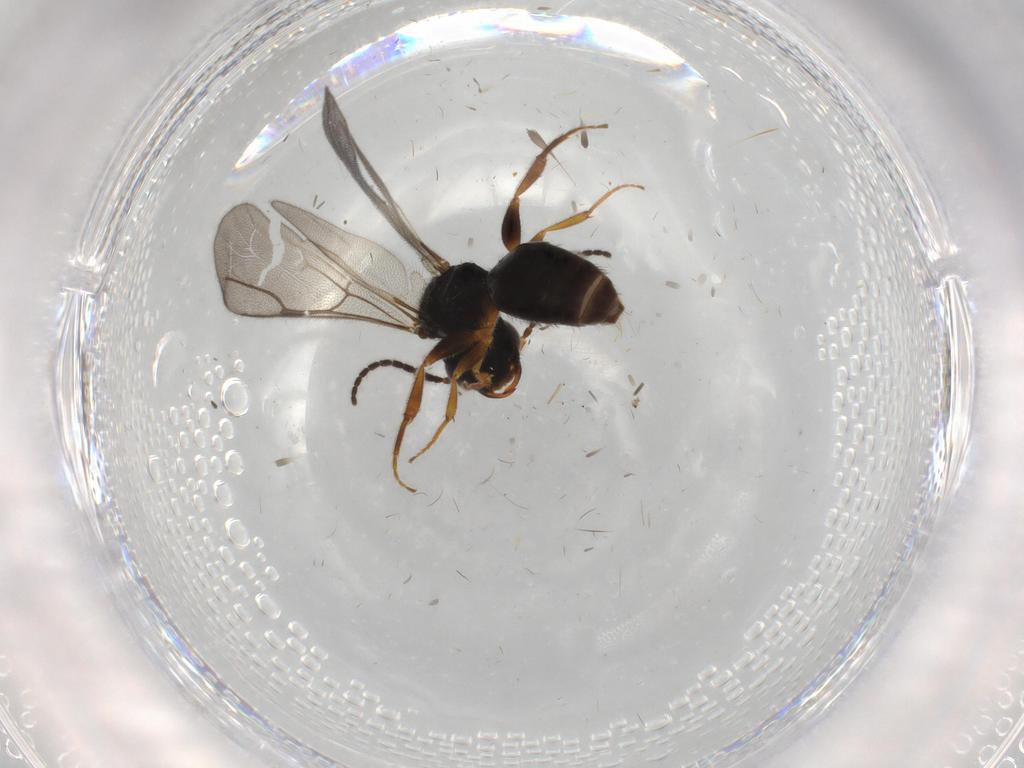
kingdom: Animalia
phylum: Arthropoda
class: Insecta
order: Hymenoptera
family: Bethylidae
